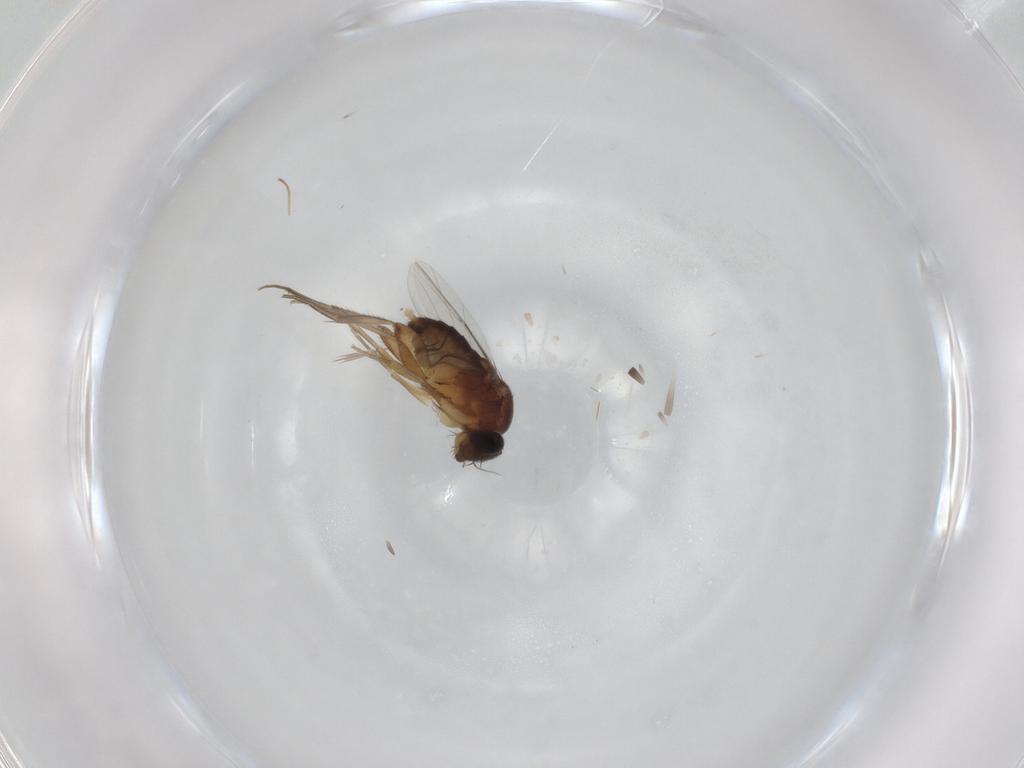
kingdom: Animalia
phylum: Arthropoda
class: Insecta
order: Diptera
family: Phoridae
